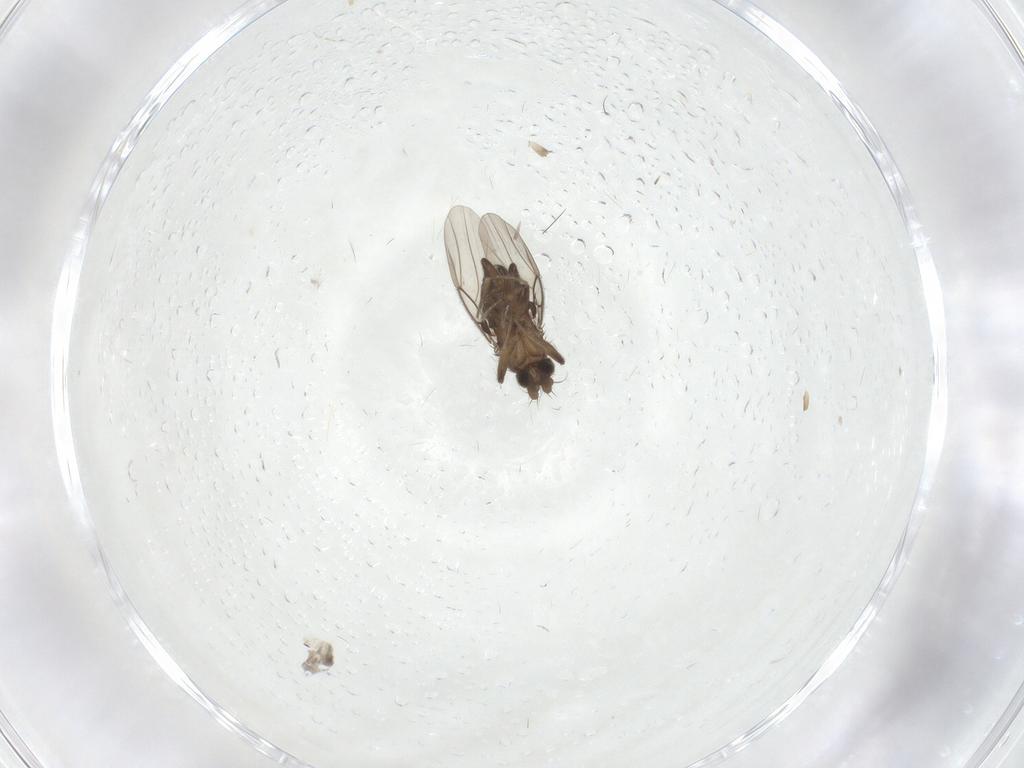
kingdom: Animalia
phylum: Arthropoda
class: Insecta
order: Diptera
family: Phoridae
